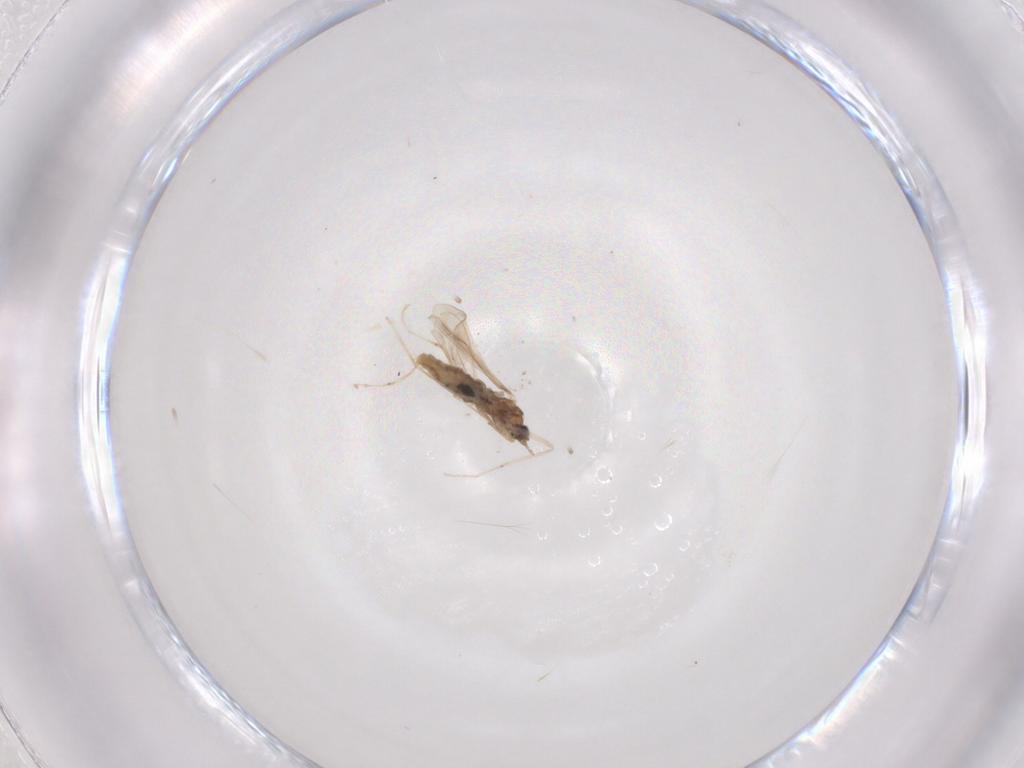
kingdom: Animalia
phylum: Arthropoda
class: Insecta
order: Diptera
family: Cecidomyiidae
